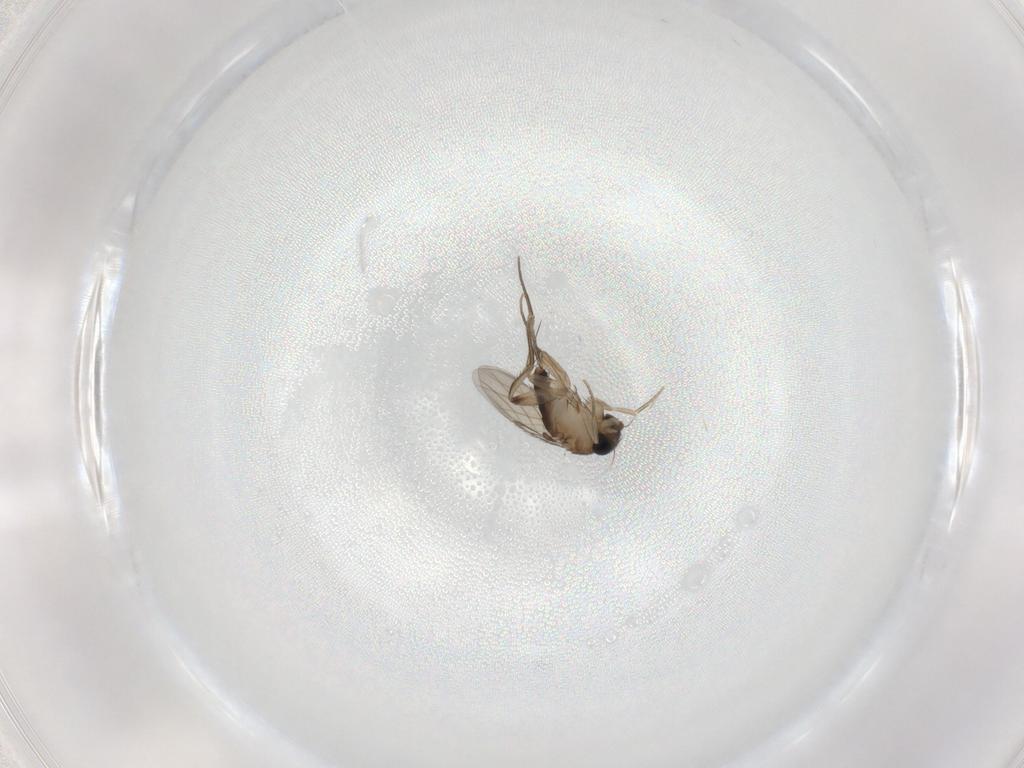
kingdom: Animalia
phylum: Arthropoda
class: Insecta
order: Diptera
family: Phoridae
